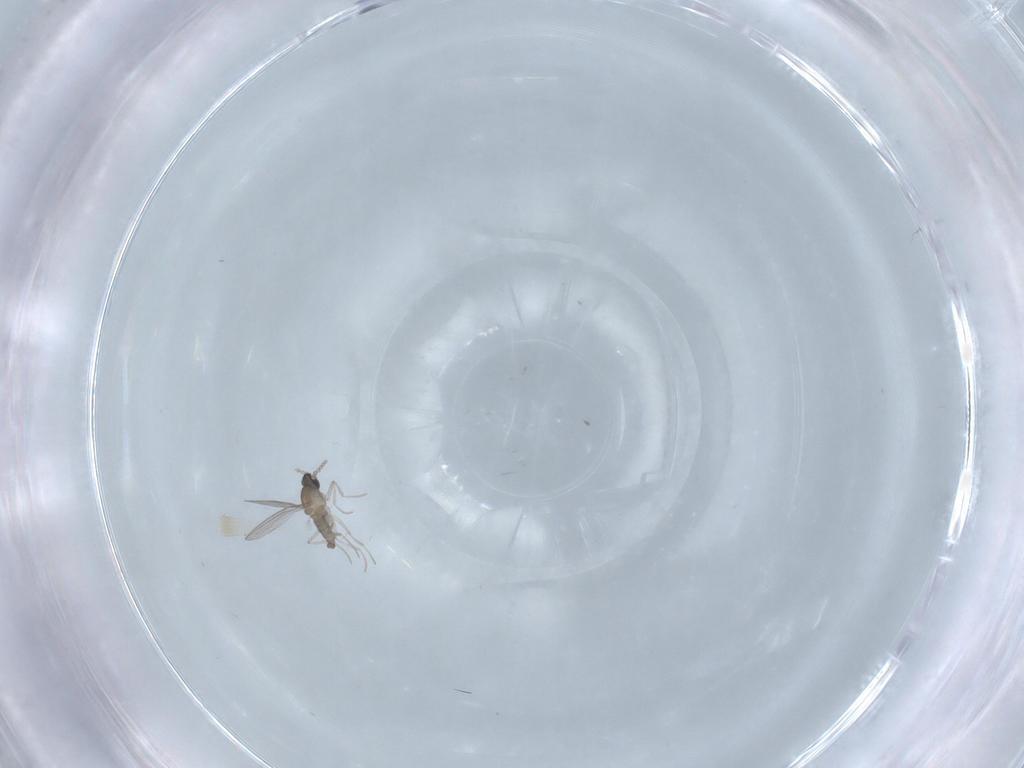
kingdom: Animalia
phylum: Arthropoda
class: Insecta
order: Diptera
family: Cecidomyiidae
